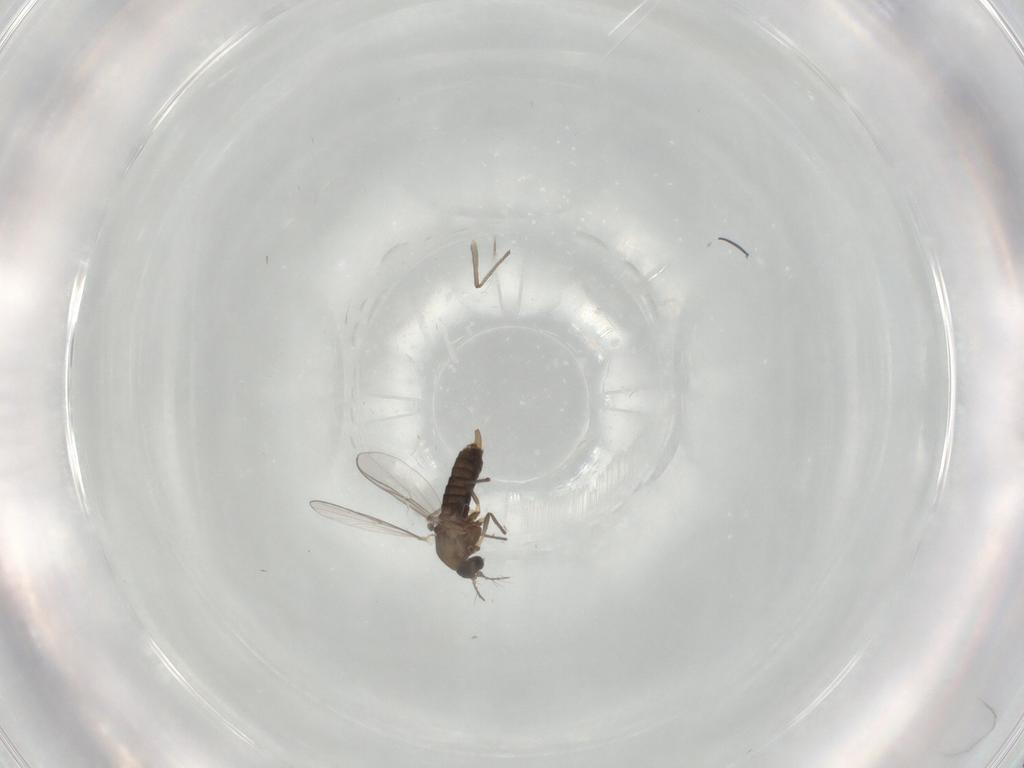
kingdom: Animalia
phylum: Arthropoda
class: Insecta
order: Diptera
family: Chironomidae
